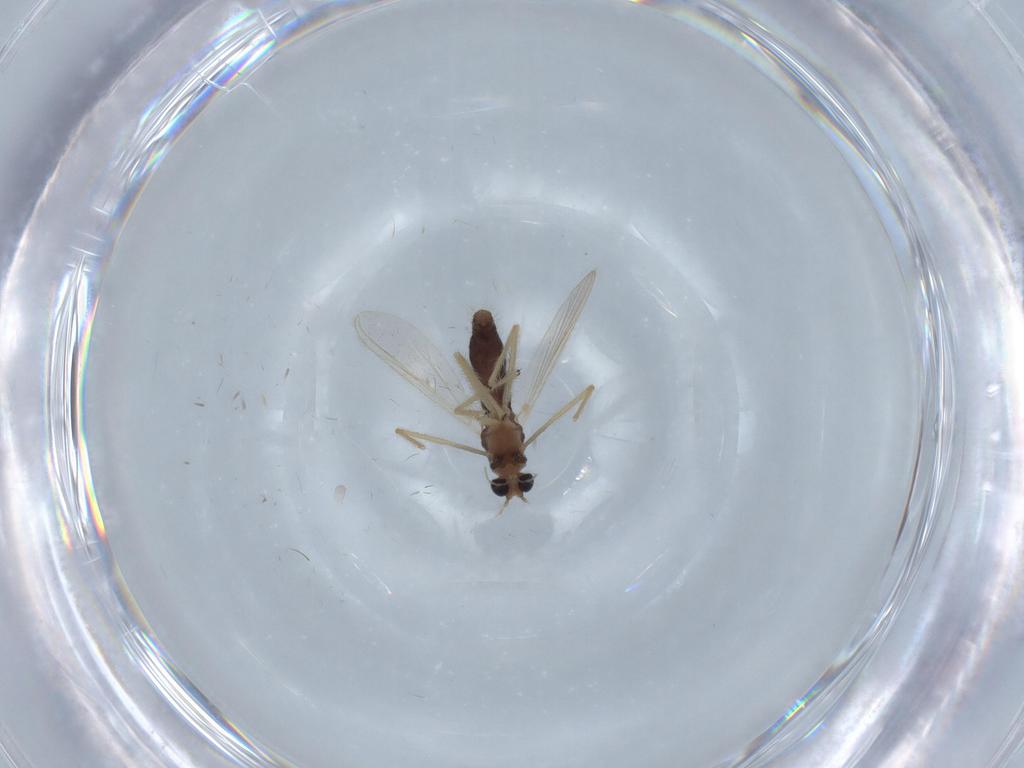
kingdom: Animalia
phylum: Arthropoda
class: Insecta
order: Diptera
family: Chironomidae
